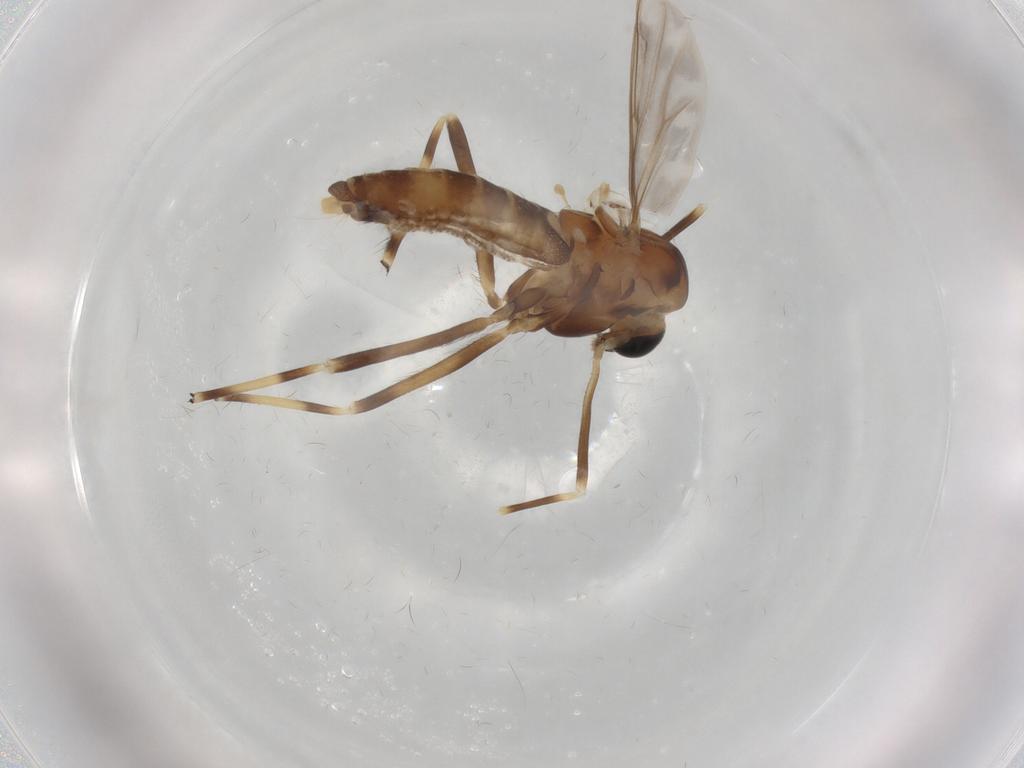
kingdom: Animalia
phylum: Arthropoda
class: Insecta
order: Diptera
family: Chironomidae
